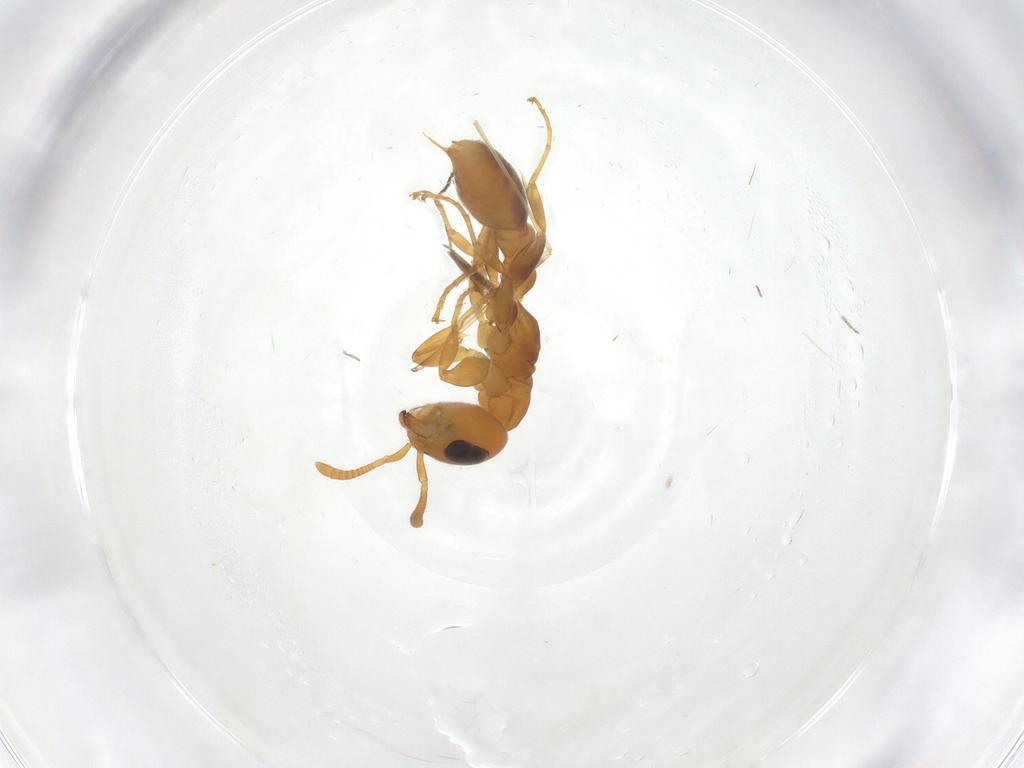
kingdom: Animalia
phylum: Arthropoda
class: Insecta
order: Hymenoptera
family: Formicidae
